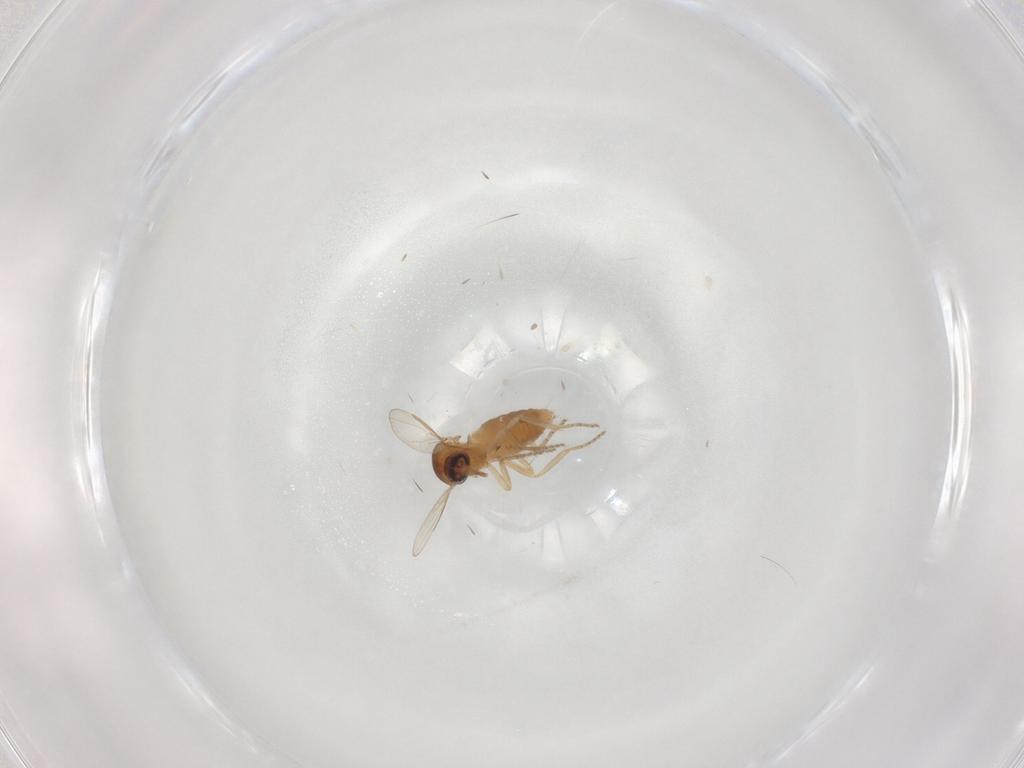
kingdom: Animalia
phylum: Arthropoda
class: Insecta
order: Diptera
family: Ceratopogonidae
